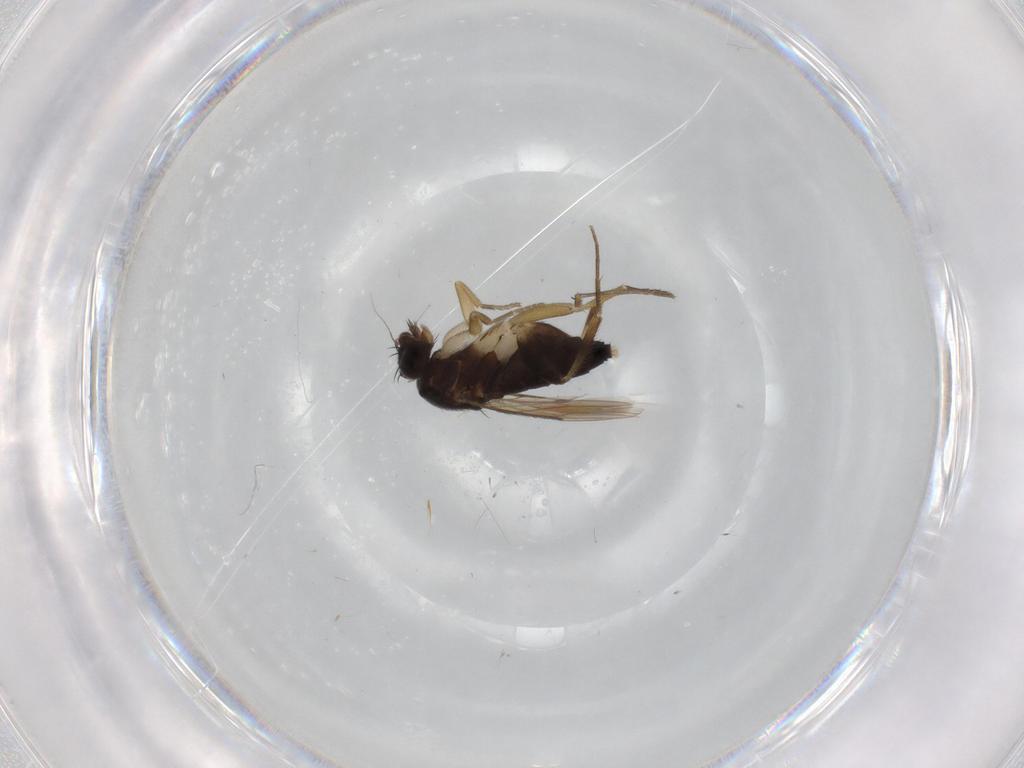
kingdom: Animalia
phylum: Arthropoda
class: Insecta
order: Diptera
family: Phoridae
